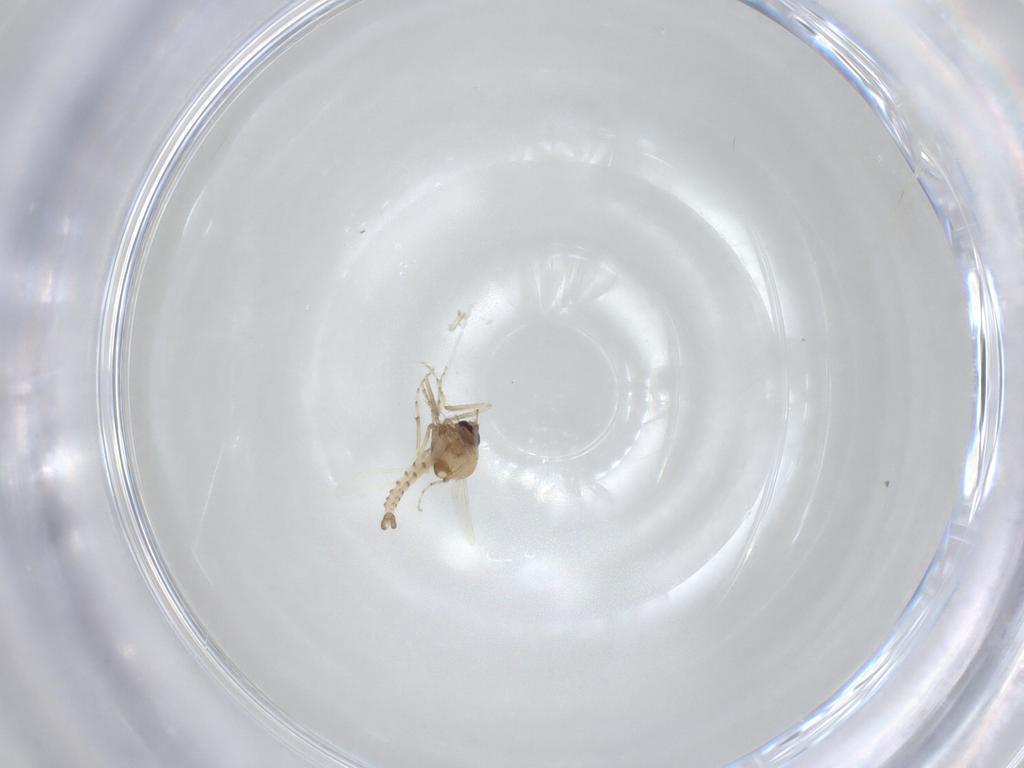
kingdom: Animalia
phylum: Arthropoda
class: Insecta
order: Diptera
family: Ceratopogonidae
